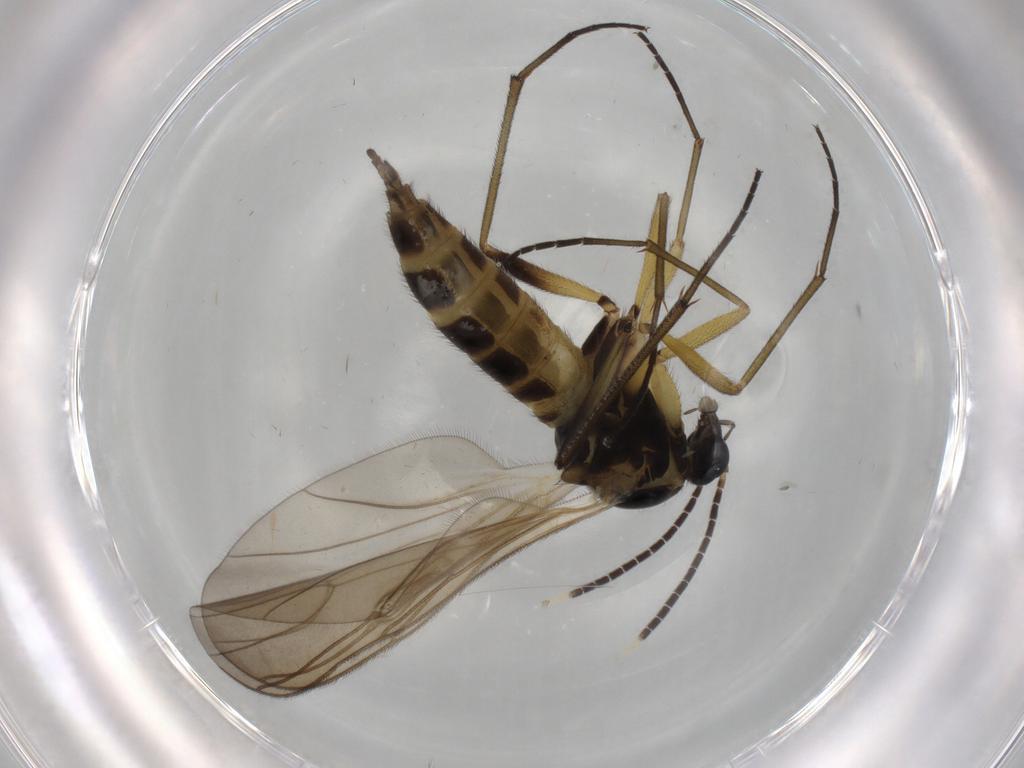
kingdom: Animalia
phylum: Arthropoda
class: Insecta
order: Diptera
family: Sciaridae
